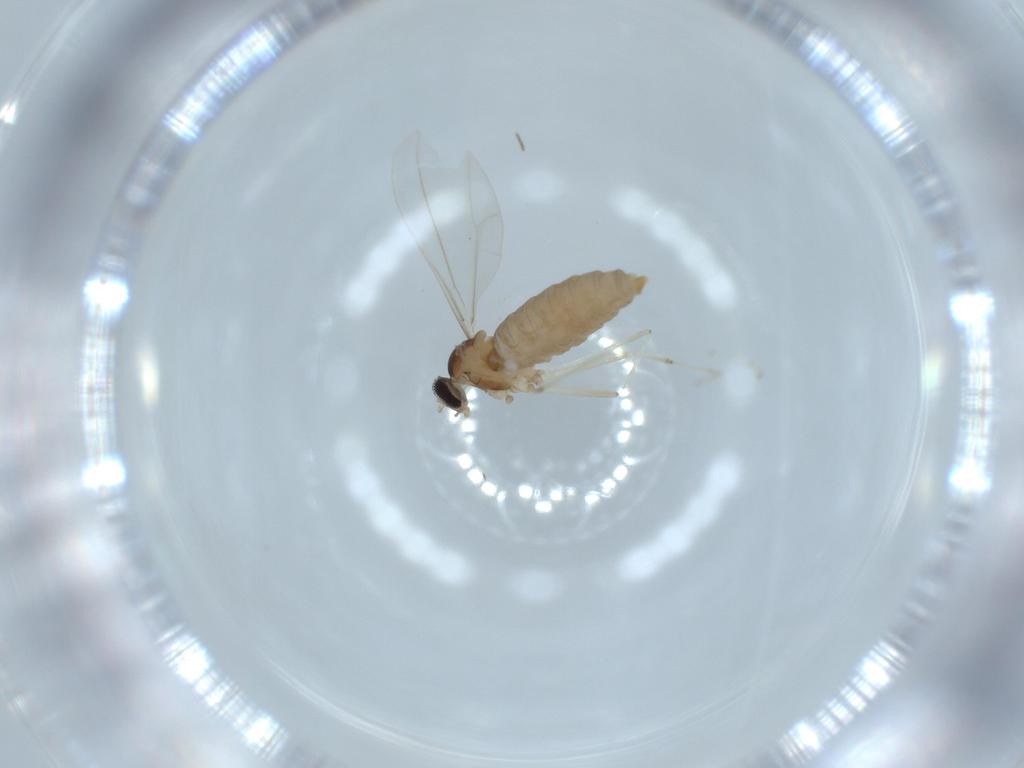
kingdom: Animalia
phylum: Arthropoda
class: Insecta
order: Diptera
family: Cecidomyiidae
